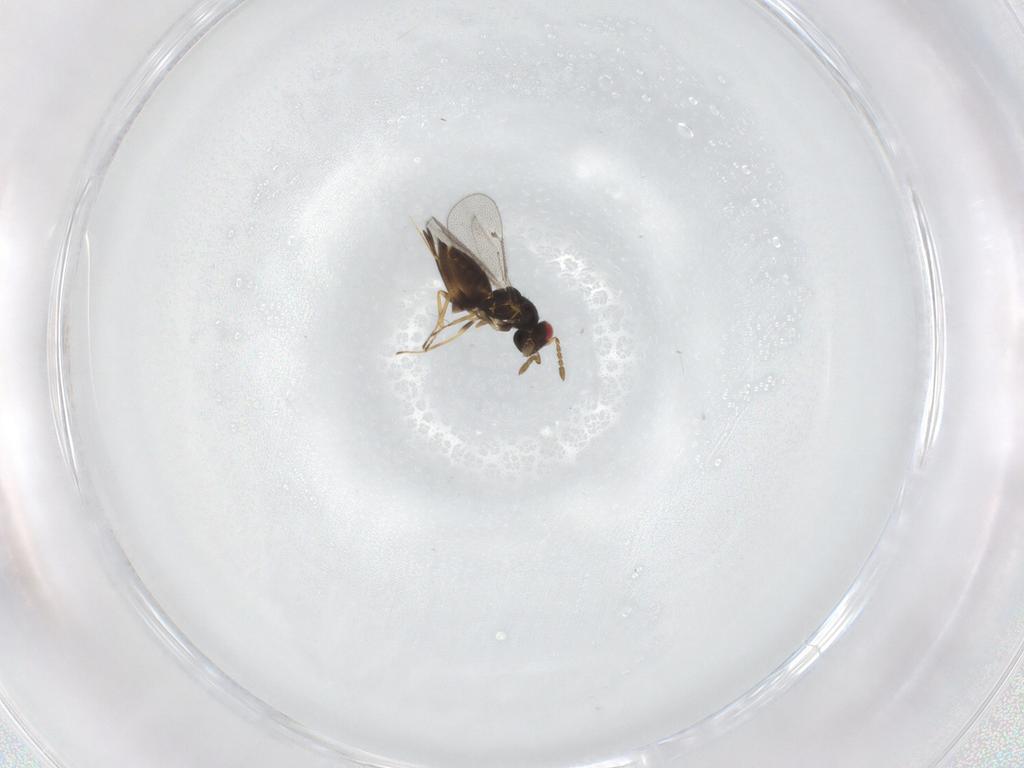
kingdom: Animalia
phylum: Arthropoda
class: Insecta
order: Hymenoptera
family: Eulophidae
